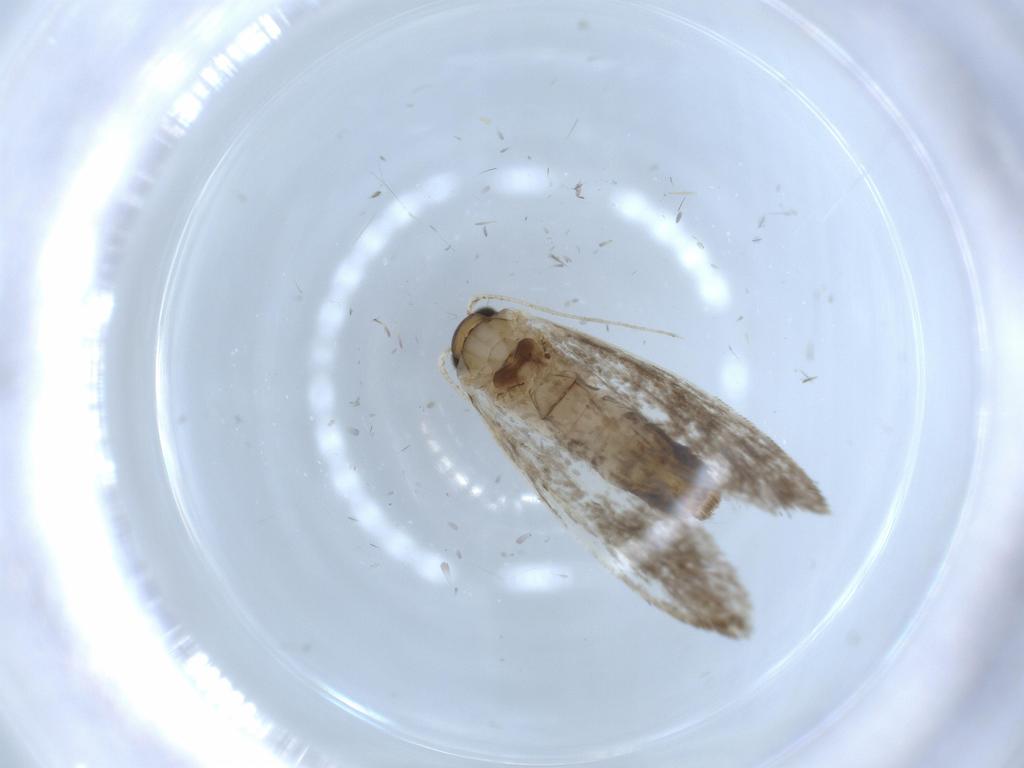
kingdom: Animalia
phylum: Arthropoda
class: Insecta
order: Lepidoptera
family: Tineidae
